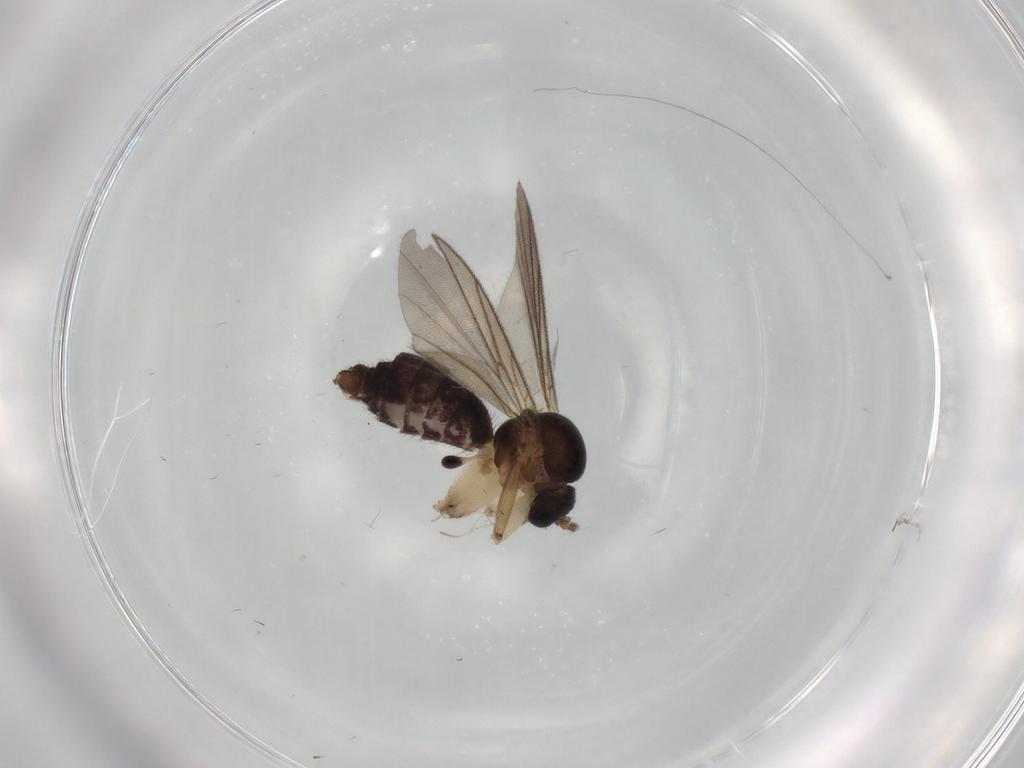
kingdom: Animalia
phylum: Arthropoda
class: Insecta
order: Diptera
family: Mycetophilidae
